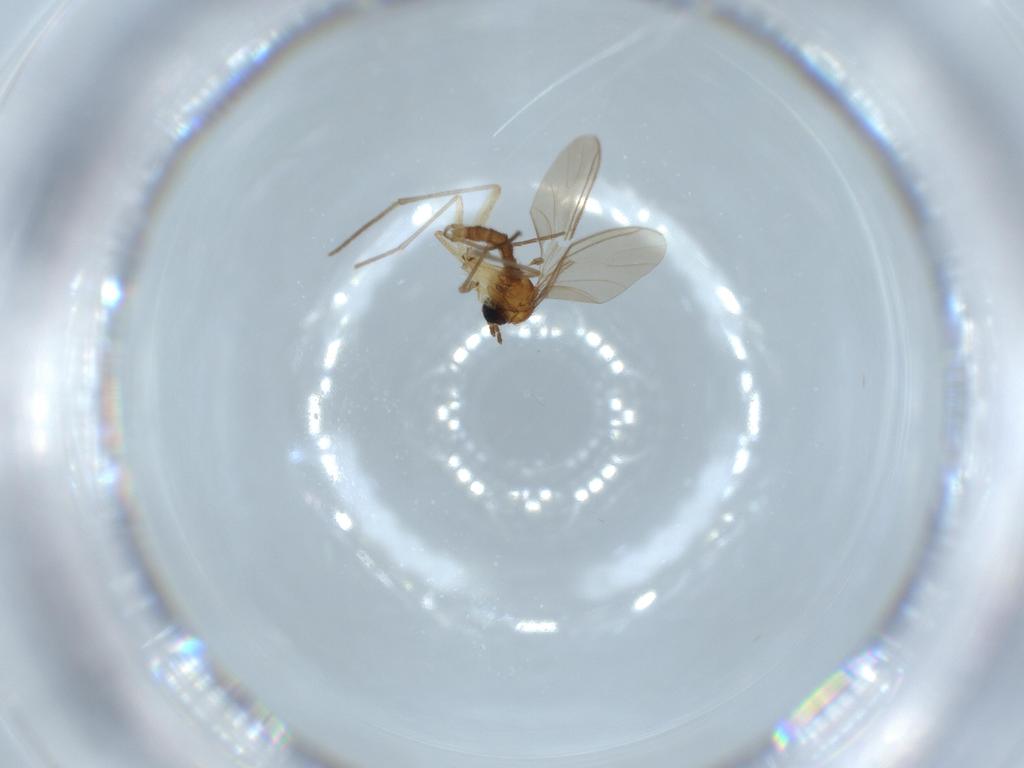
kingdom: Animalia
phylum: Arthropoda
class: Insecta
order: Diptera
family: Sciaridae
